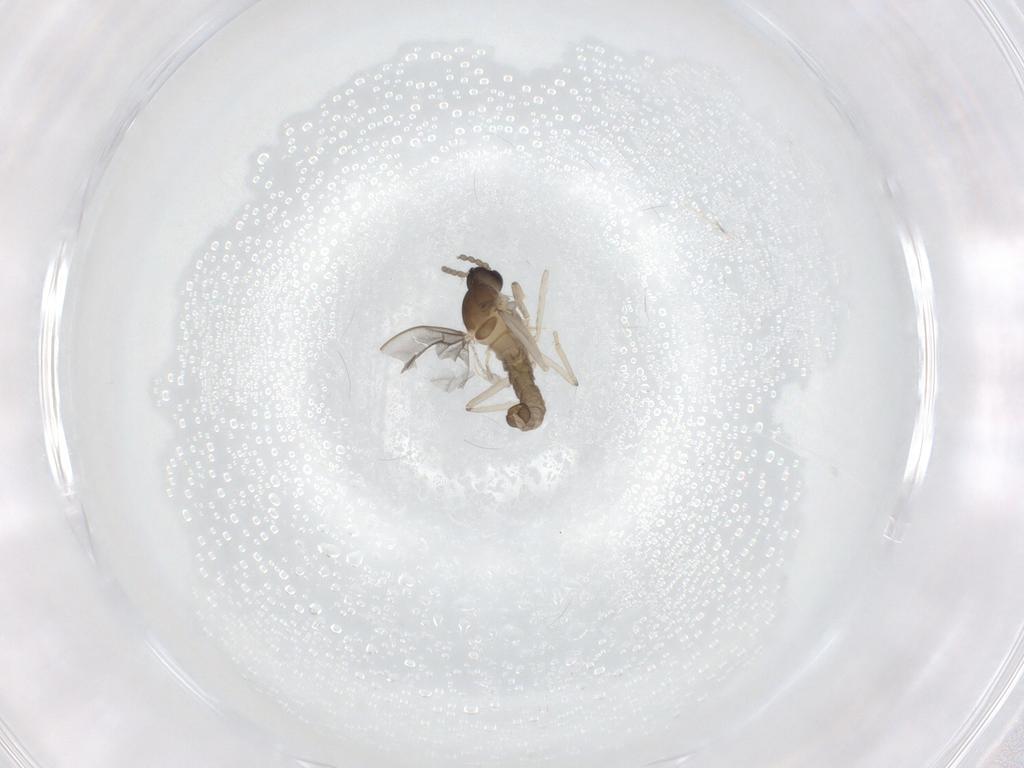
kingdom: Animalia
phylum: Arthropoda
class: Insecta
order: Diptera
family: Cecidomyiidae
